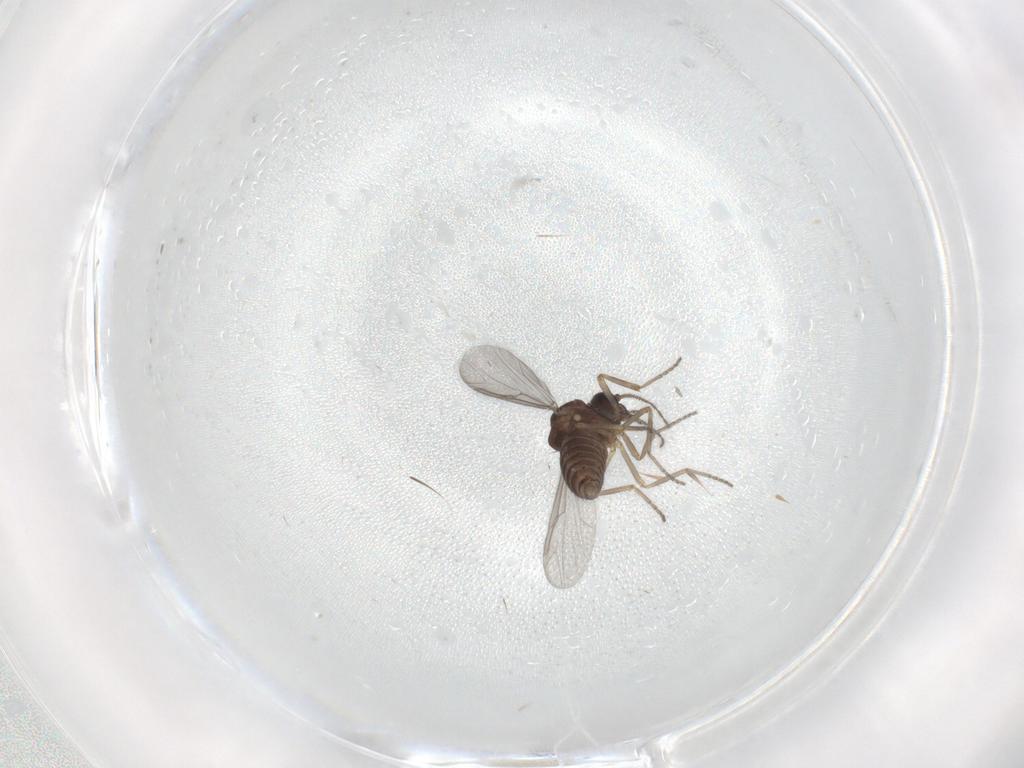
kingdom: Animalia
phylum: Arthropoda
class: Insecta
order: Diptera
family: Ceratopogonidae
